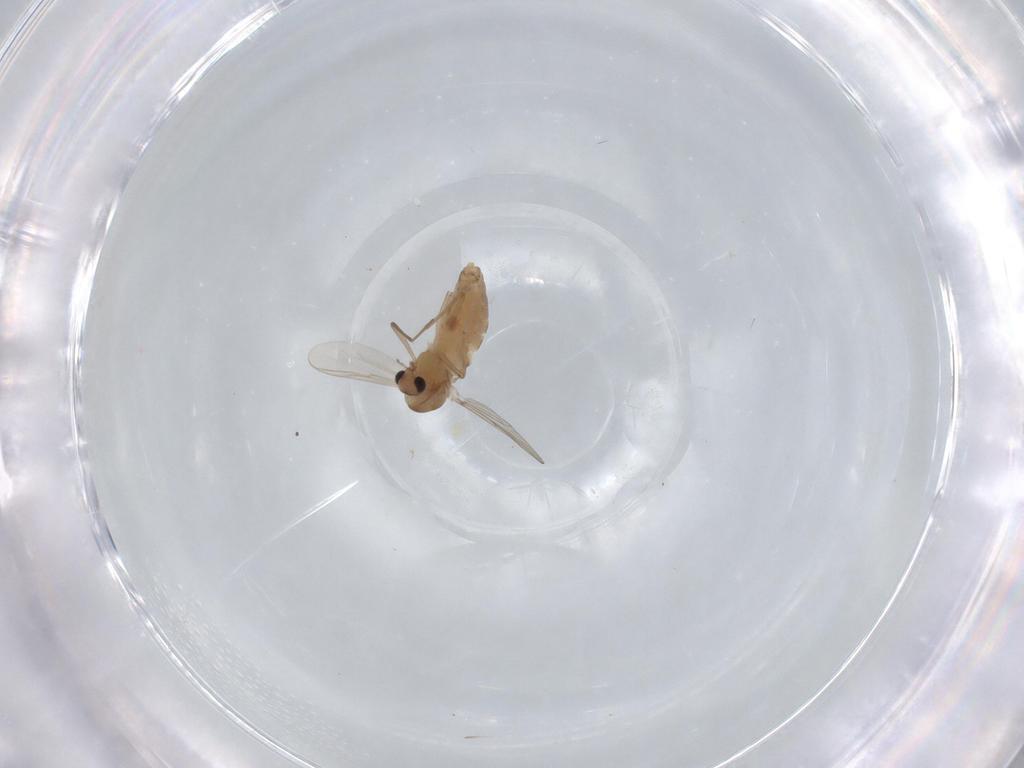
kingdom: Animalia
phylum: Arthropoda
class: Insecta
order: Diptera
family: Chironomidae
